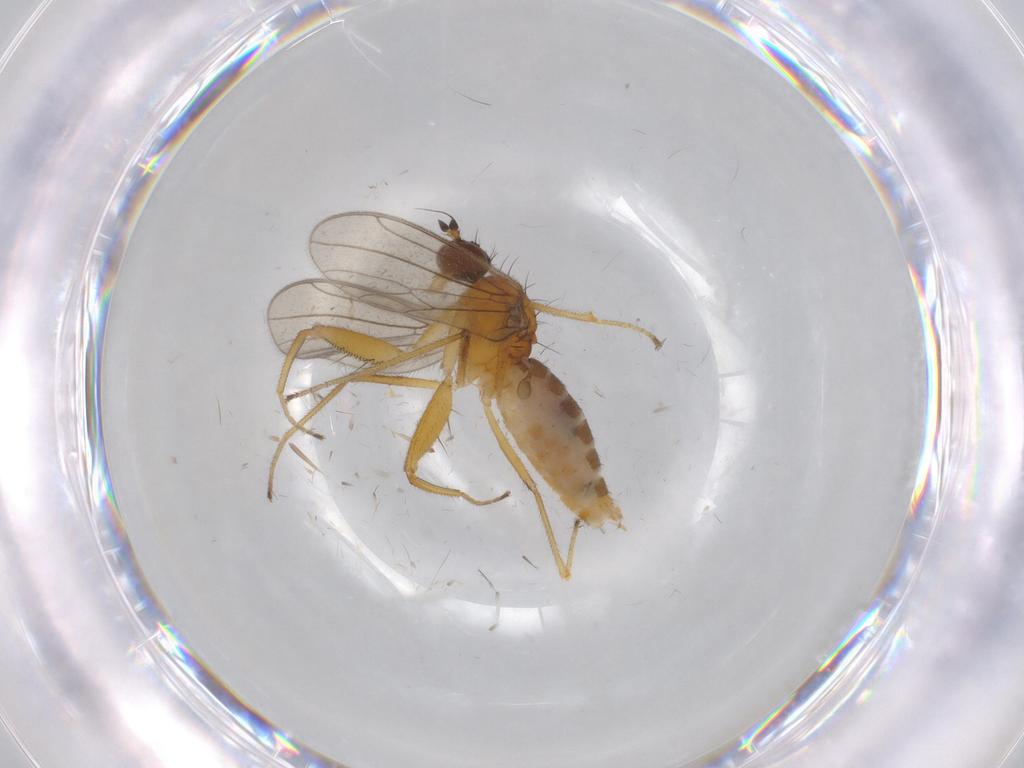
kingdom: Animalia
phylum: Arthropoda
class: Insecta
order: Diptera
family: Empididae
